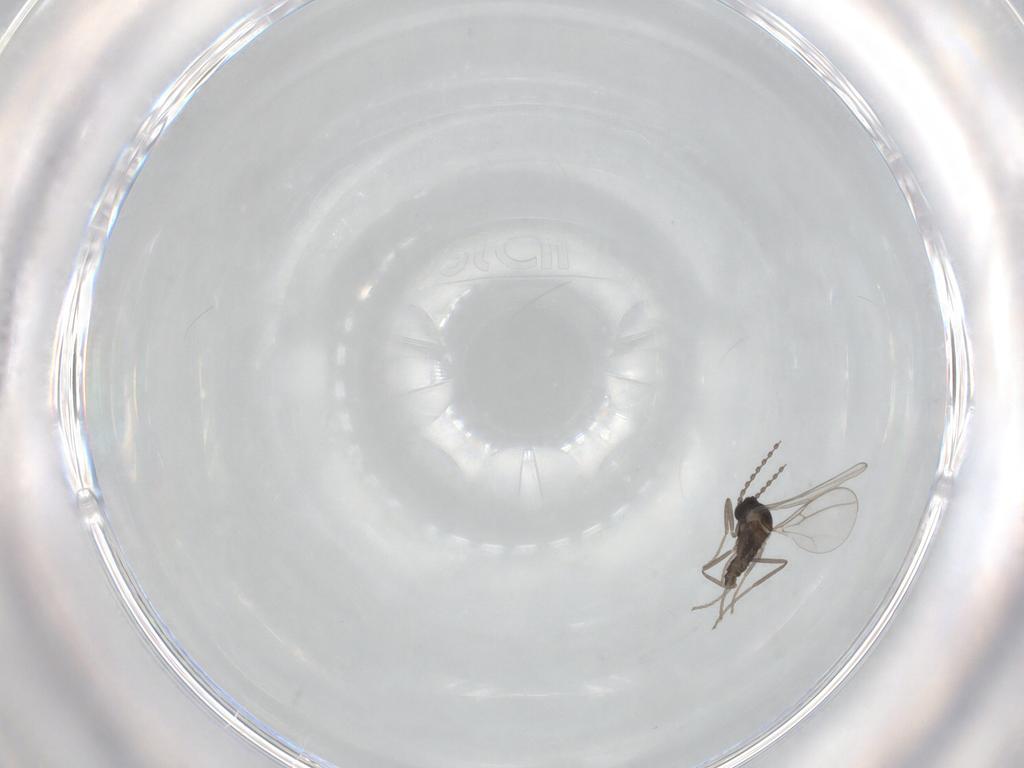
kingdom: Animalia
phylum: Arthropoda
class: Insecta
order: Diptera
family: Cecidomyiidae
